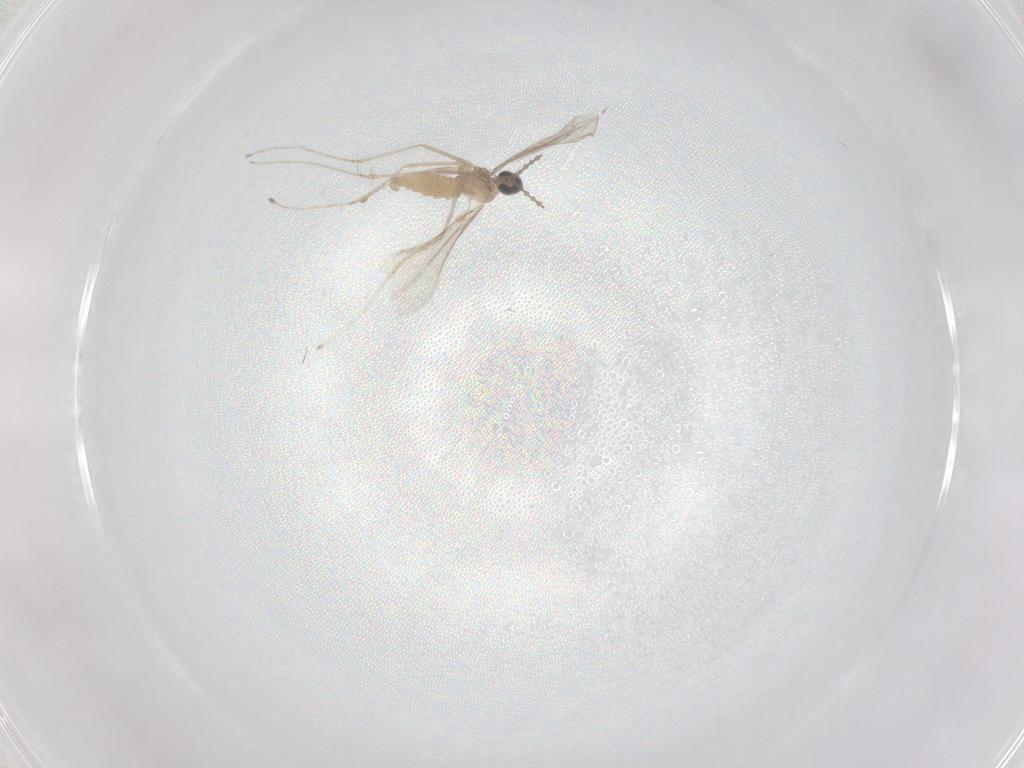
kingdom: Animalia
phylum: Arthropoda
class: Insecta
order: Diptera
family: Cecidomyiidae
